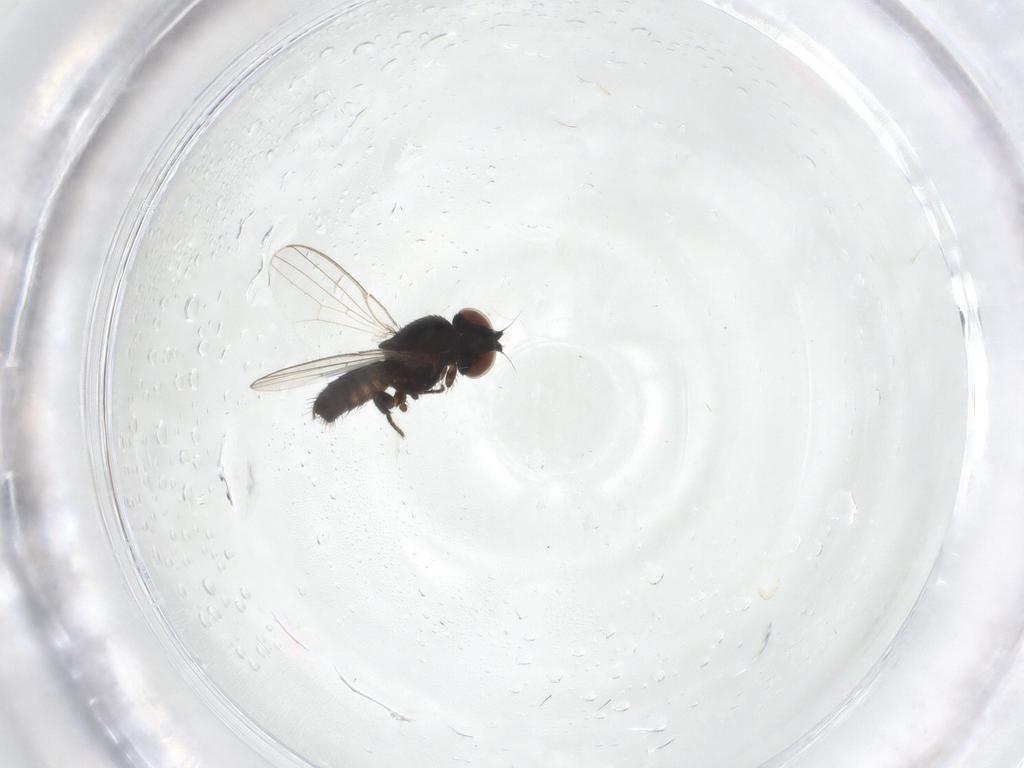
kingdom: Animalia
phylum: Arthropoda
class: Insecta
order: Diptera
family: Milichiidae
